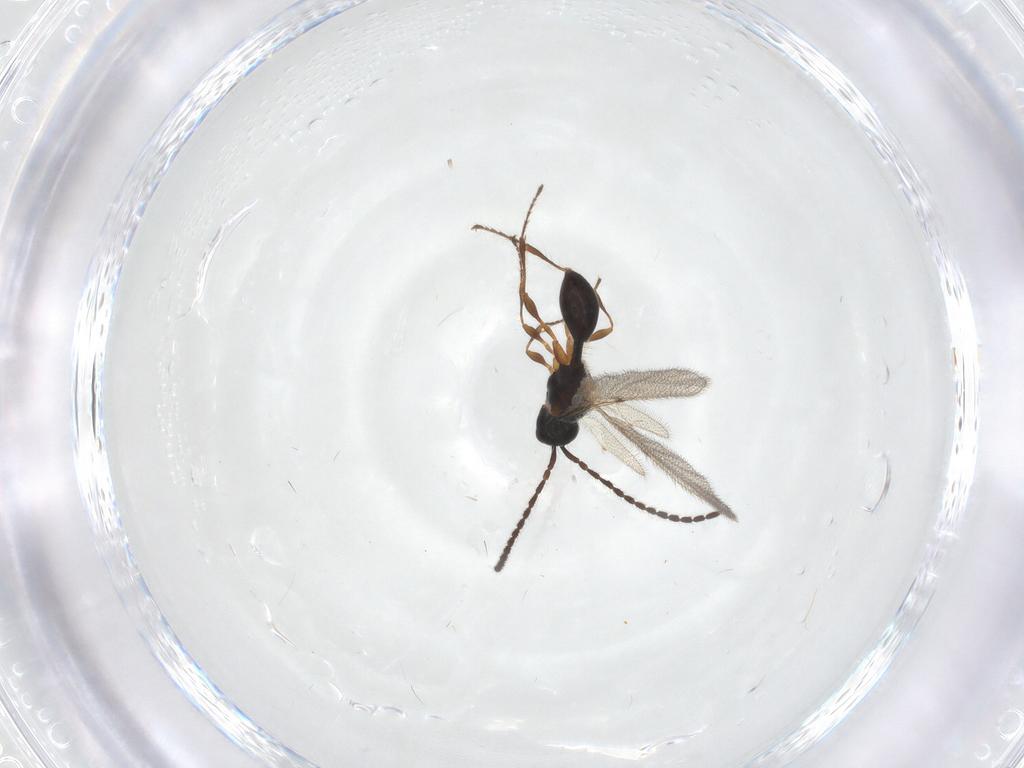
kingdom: Animalia
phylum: Arthropoda
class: Insecta
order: Hymenoptera
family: Diapriidae
